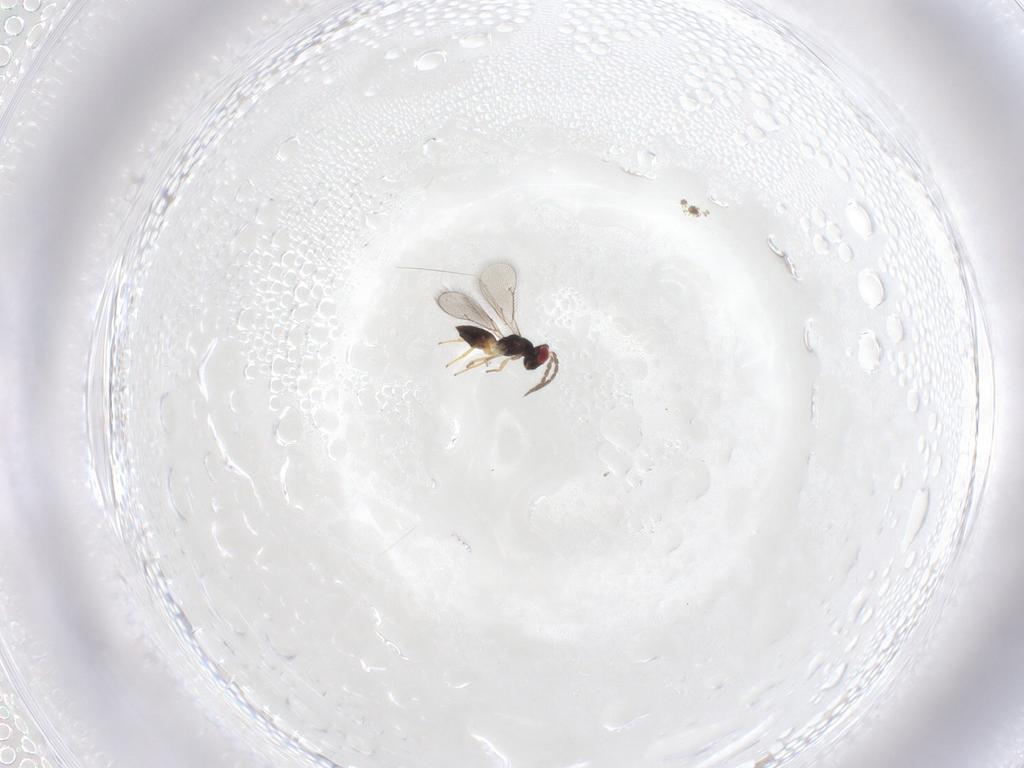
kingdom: Animalia
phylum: Arthropoda
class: Insecta
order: Hymenoptera
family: Eulophidae
